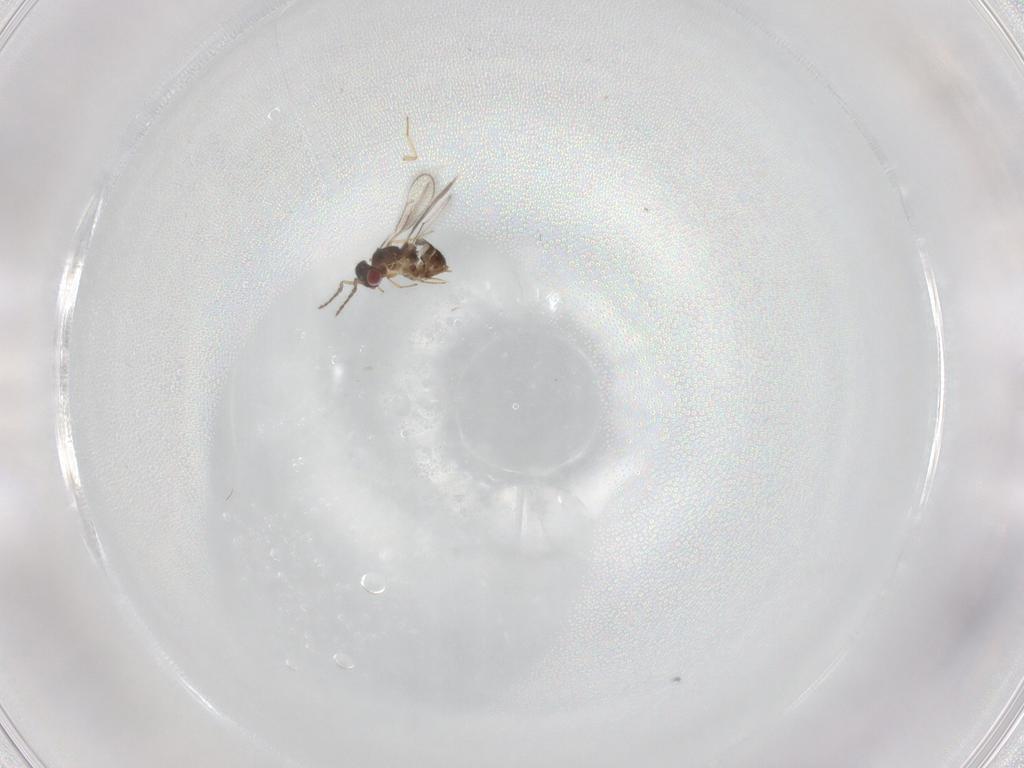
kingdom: Animalia
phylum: Arthropoda
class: Insecta
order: Hymenoptera
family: Eulophidae
